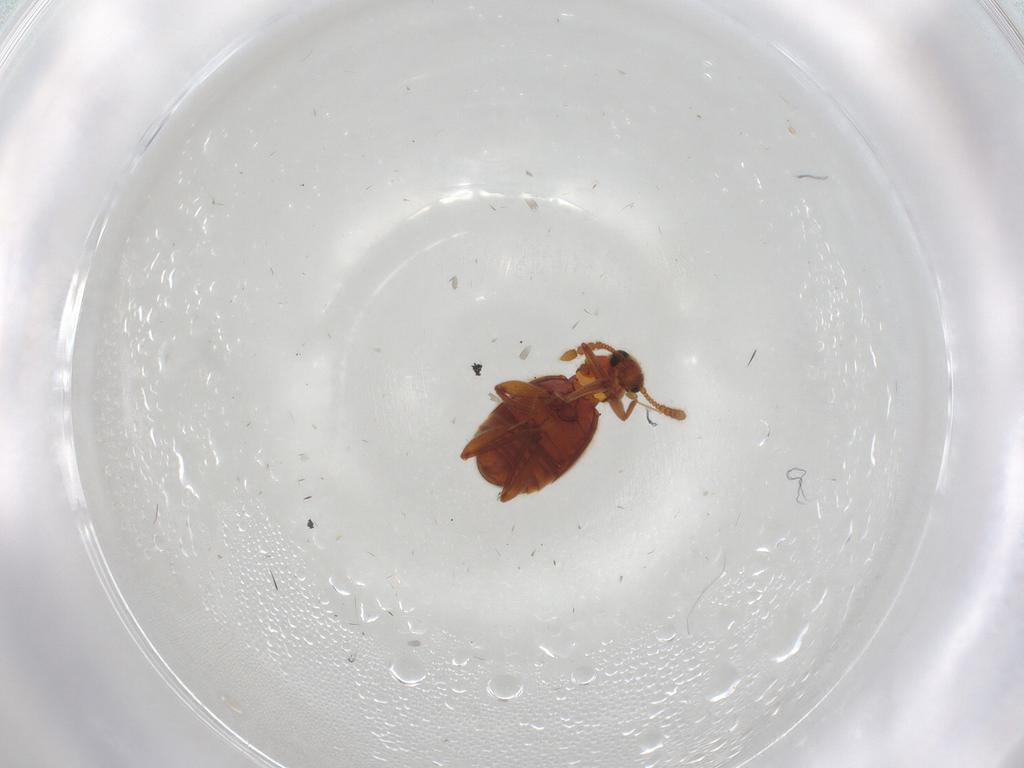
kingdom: Animalia
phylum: Arthropoda
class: Insecta
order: Coleoptera
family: Staphylinidae
